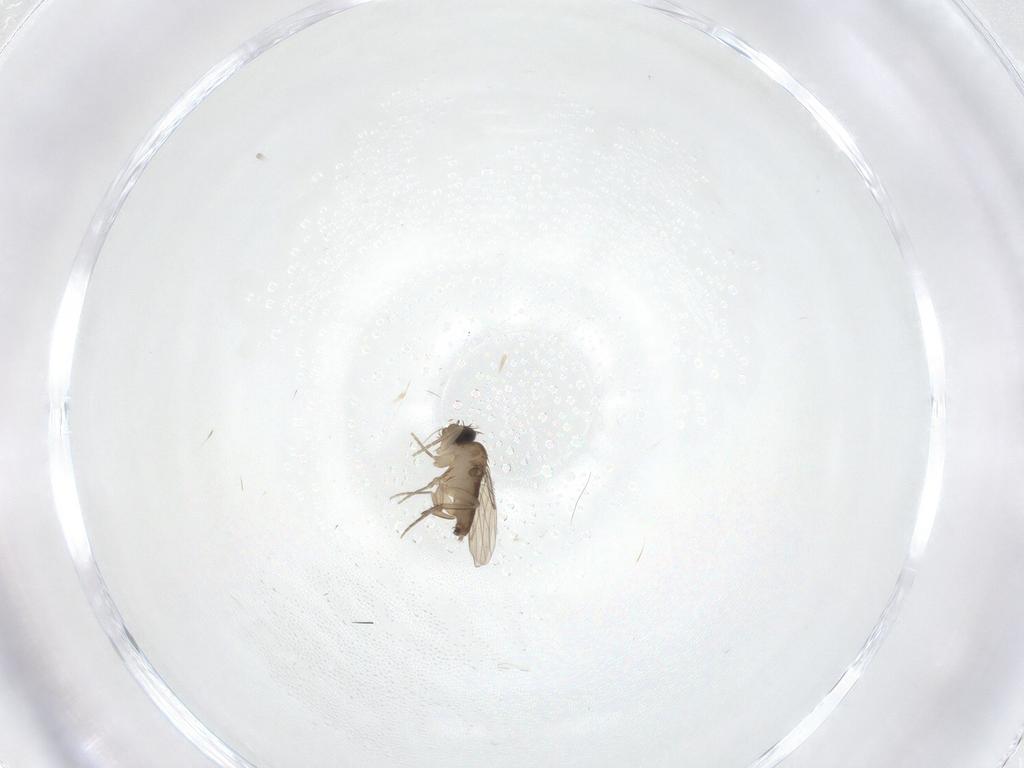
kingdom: Animalia
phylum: Arthropoda
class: Insecta
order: Diptera
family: Phoridae
